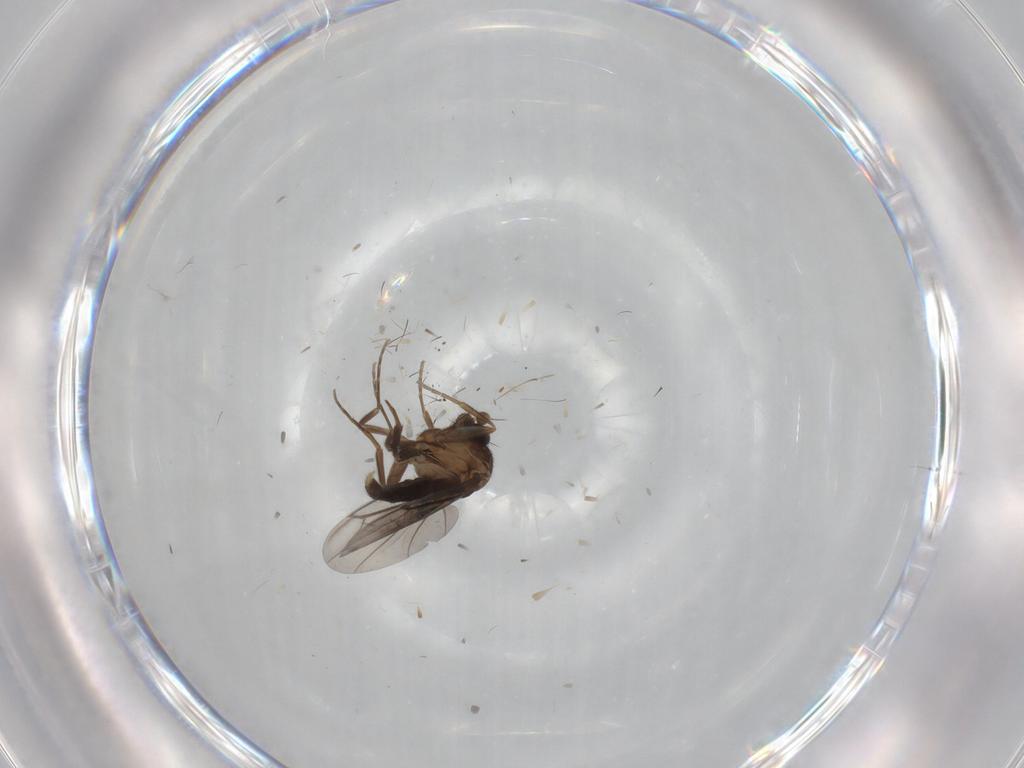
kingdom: Animalia
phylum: Arthropoda
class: Insecta
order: Diptera
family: Phoridae
